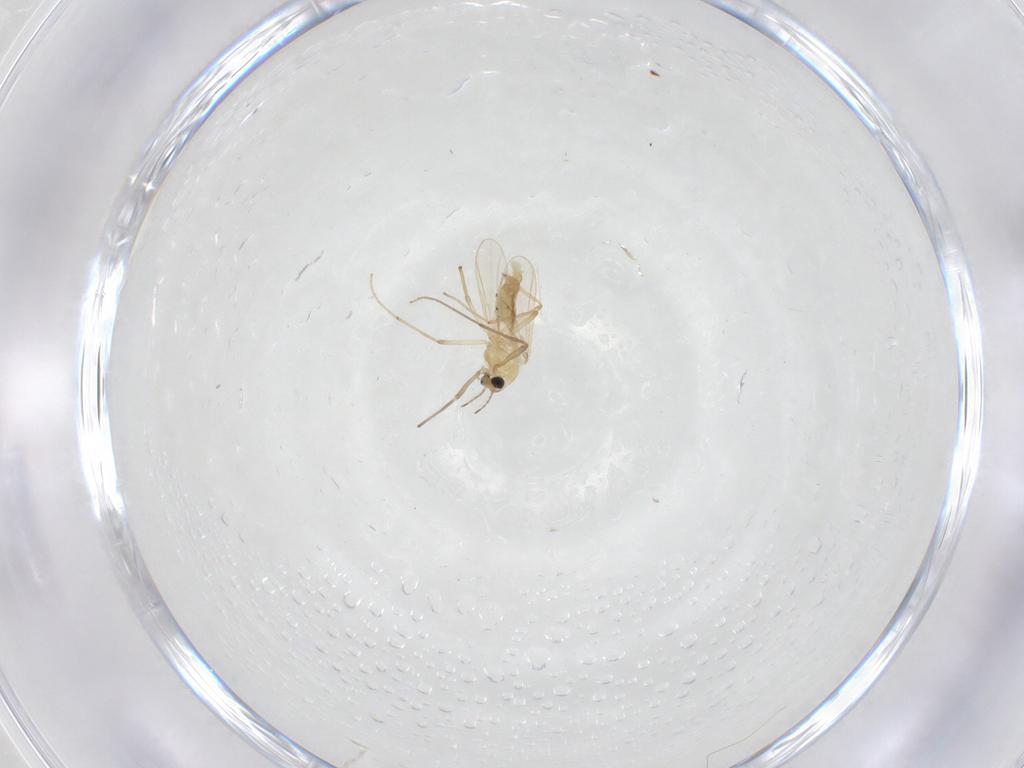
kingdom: Animalia
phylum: Arthropoda
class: Insecta
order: Diptera
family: Chironomidae
